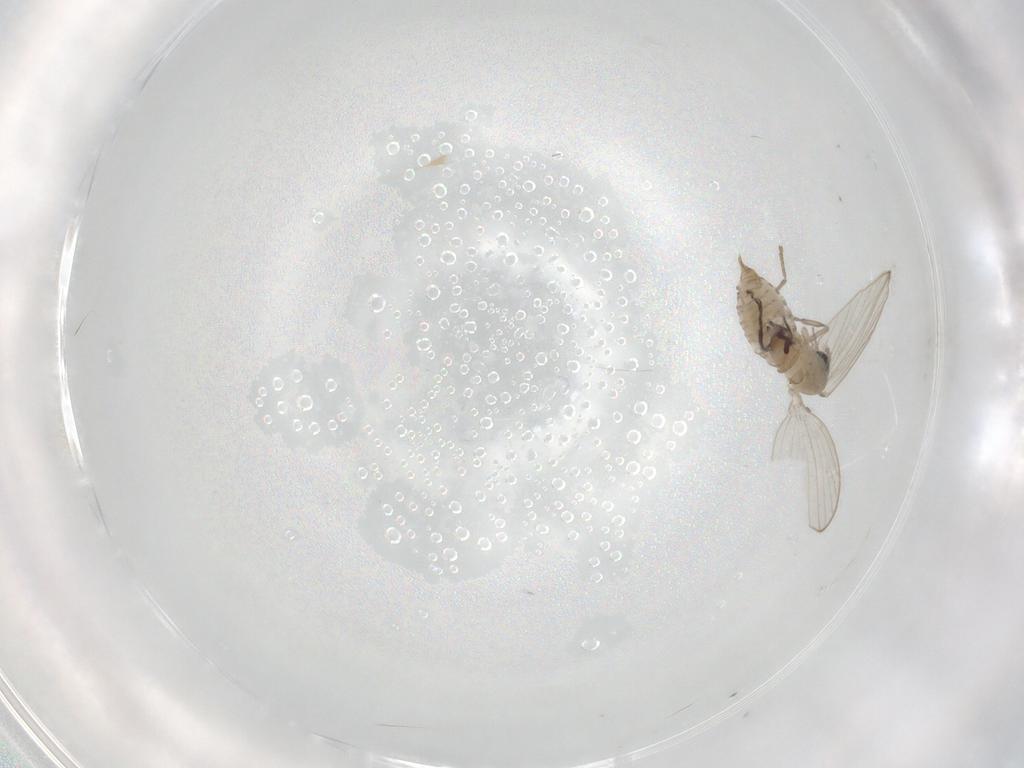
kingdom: Animalia
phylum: Arthropoda
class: Insecta
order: Diptera
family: Psychodidae
